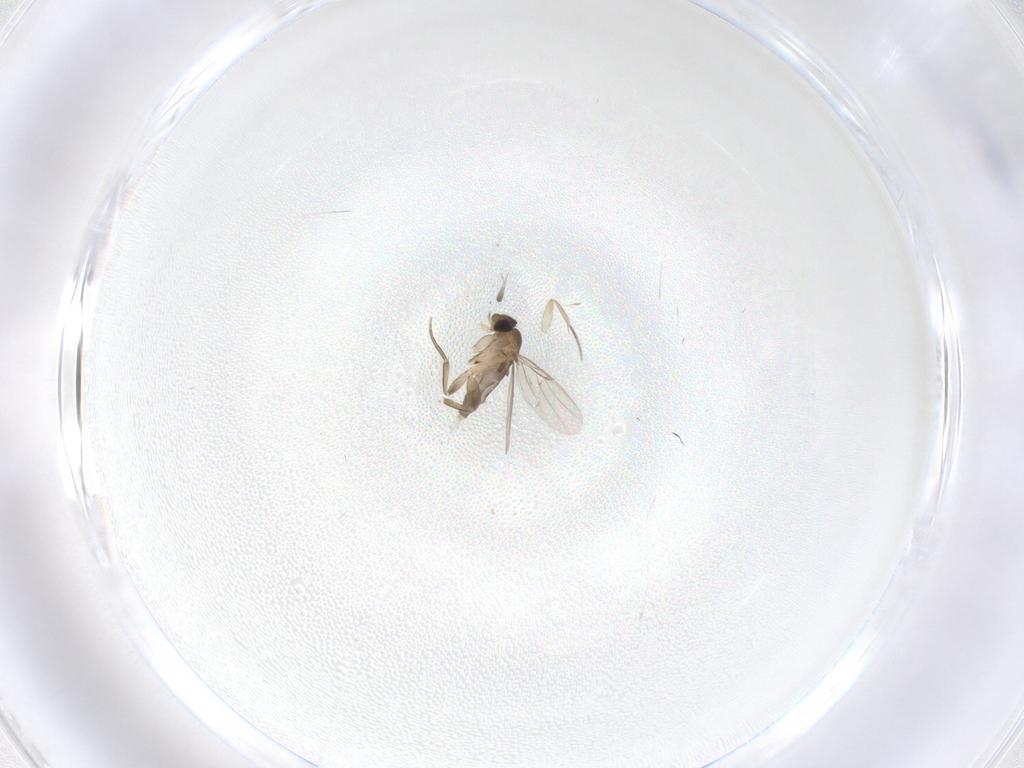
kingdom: Animalia
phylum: Arthropoda
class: Insecta
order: Diptera
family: Phoridae
